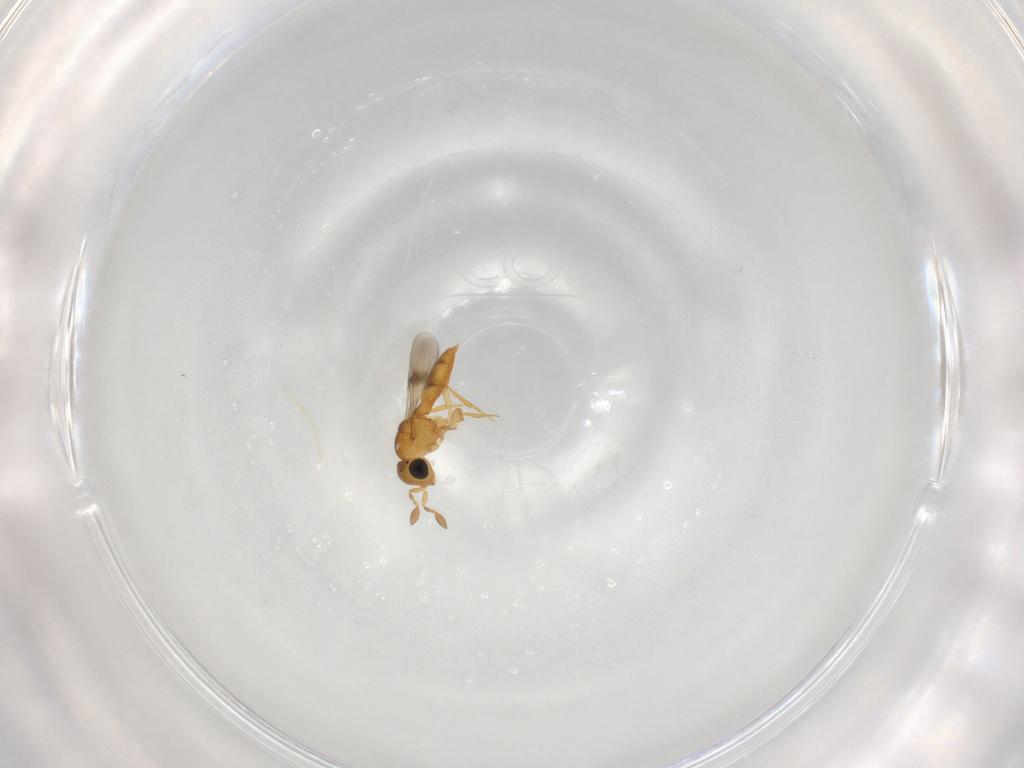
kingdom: Animalia
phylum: Arthropoda
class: Insecta
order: Hymenoptera
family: Scelionidae
